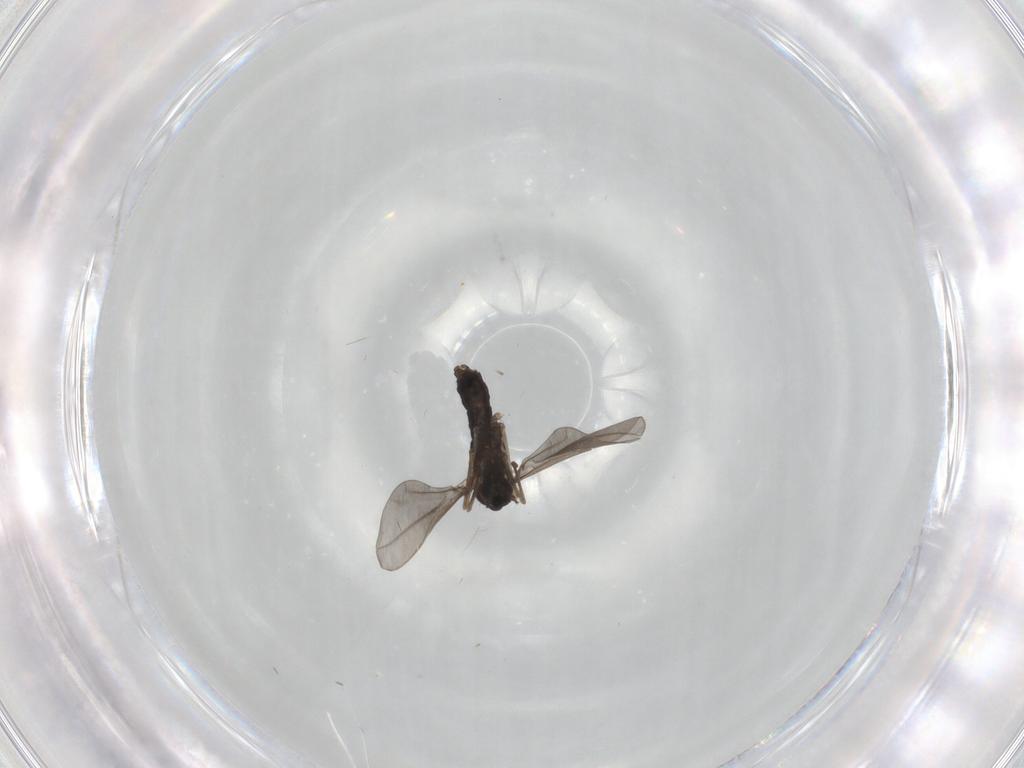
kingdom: Animalia
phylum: Arthropoda
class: Insecta
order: Diptera
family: Cecidomyiidae
